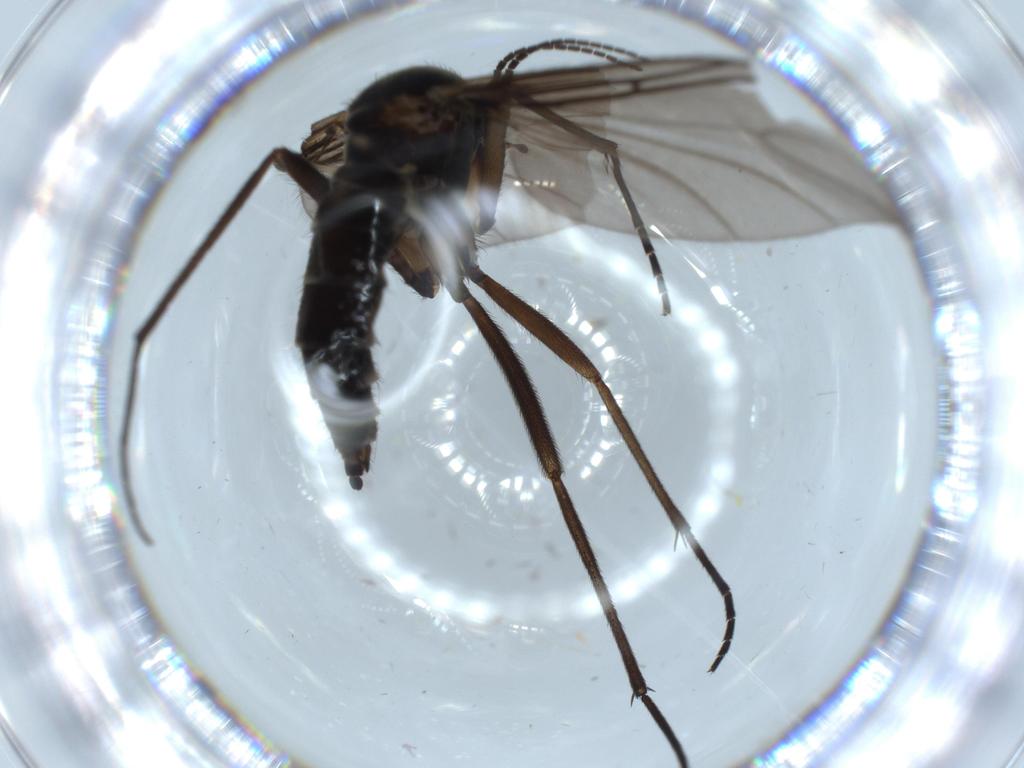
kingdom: Animalia
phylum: Arthropoda
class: Insecta
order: Diptera
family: Sciaridae
